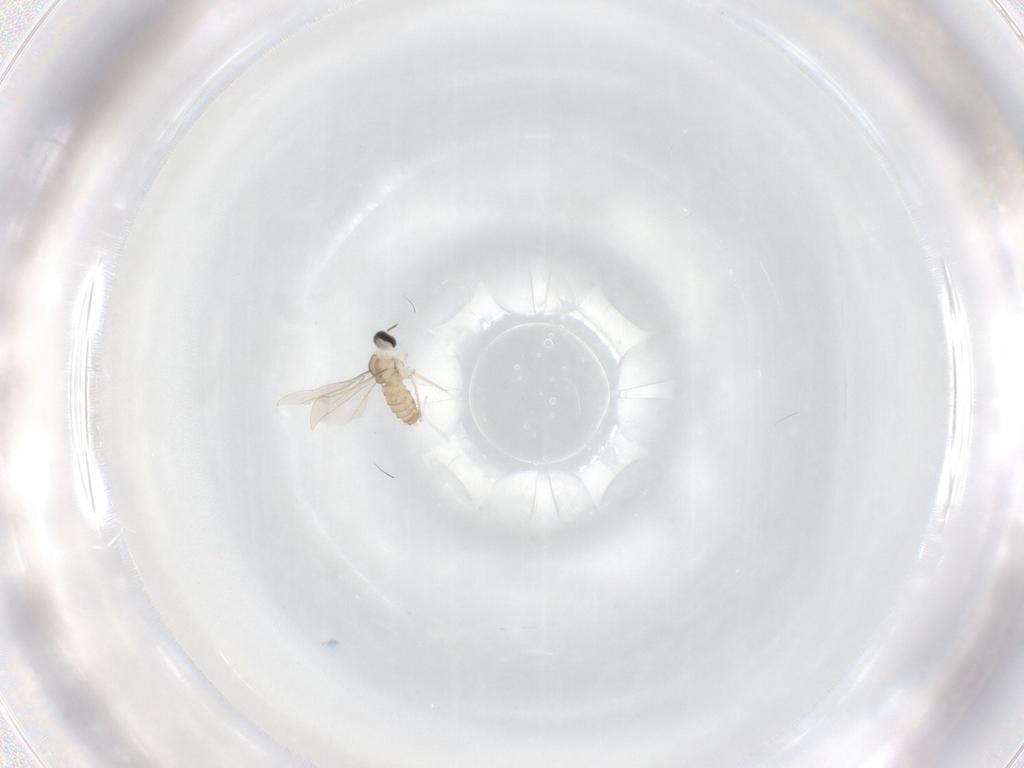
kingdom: Animalia
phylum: Arthropoda
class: Insecta
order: Diptera
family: Cecidomyiidae
